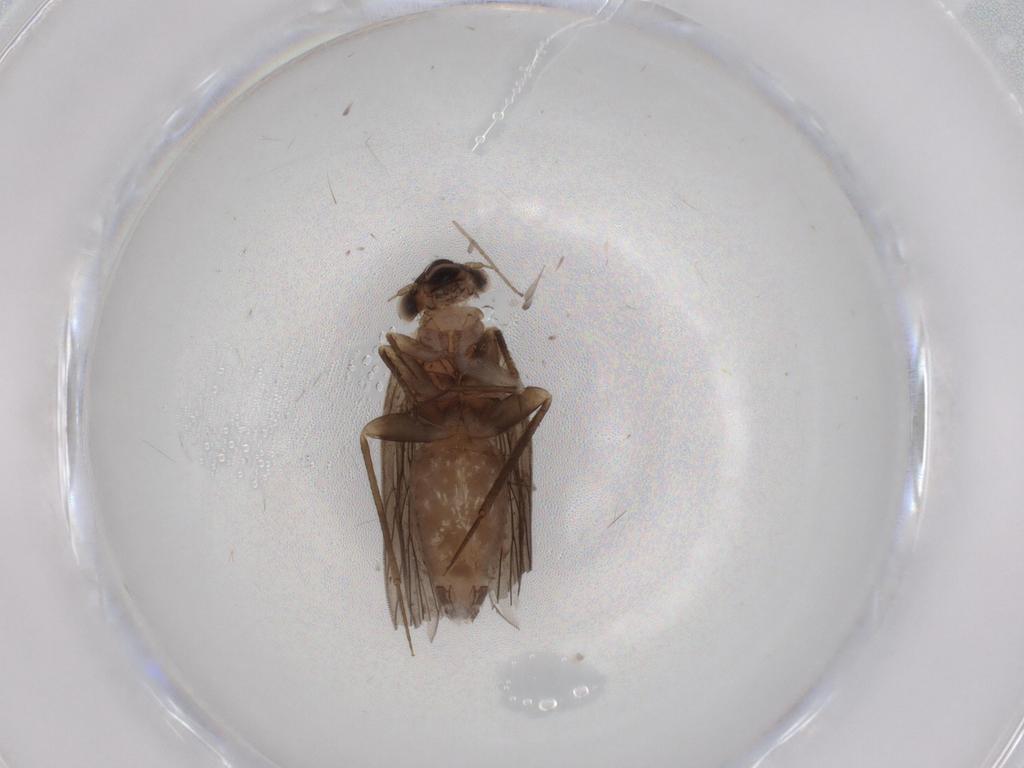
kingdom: Animalia
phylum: Arthropoda
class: Insecta
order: Psocodea
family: Lepidopsocidae
